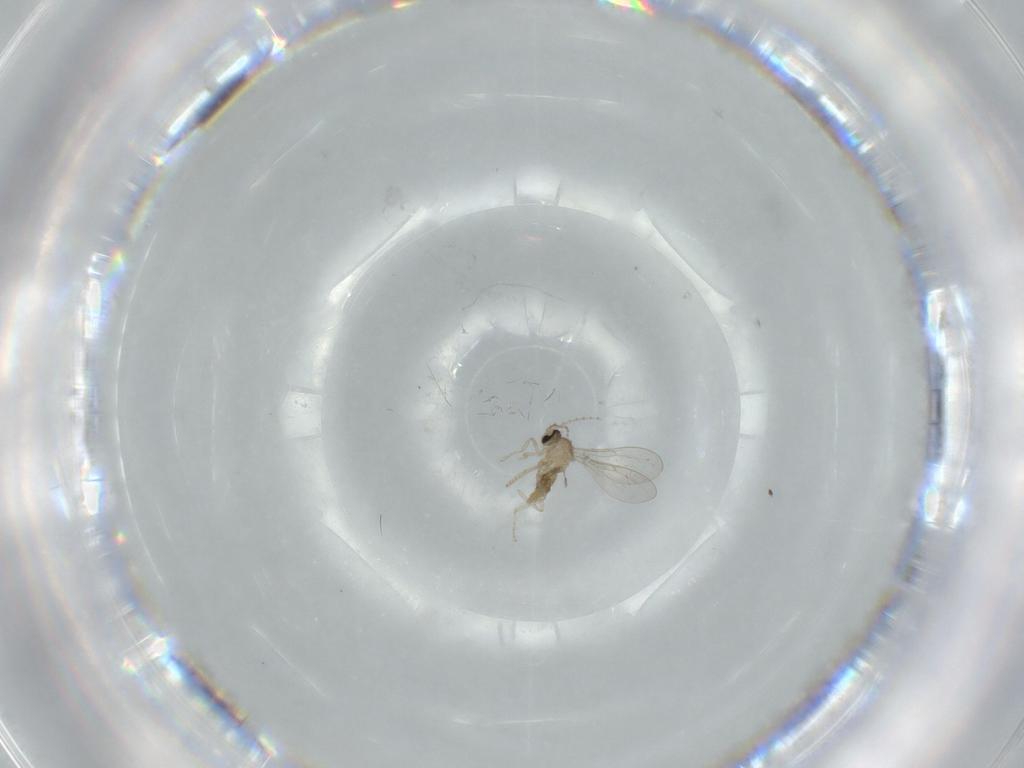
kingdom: Animalia
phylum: Arthropoda
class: Insecta
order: Diptera
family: Cecidomyiidae
